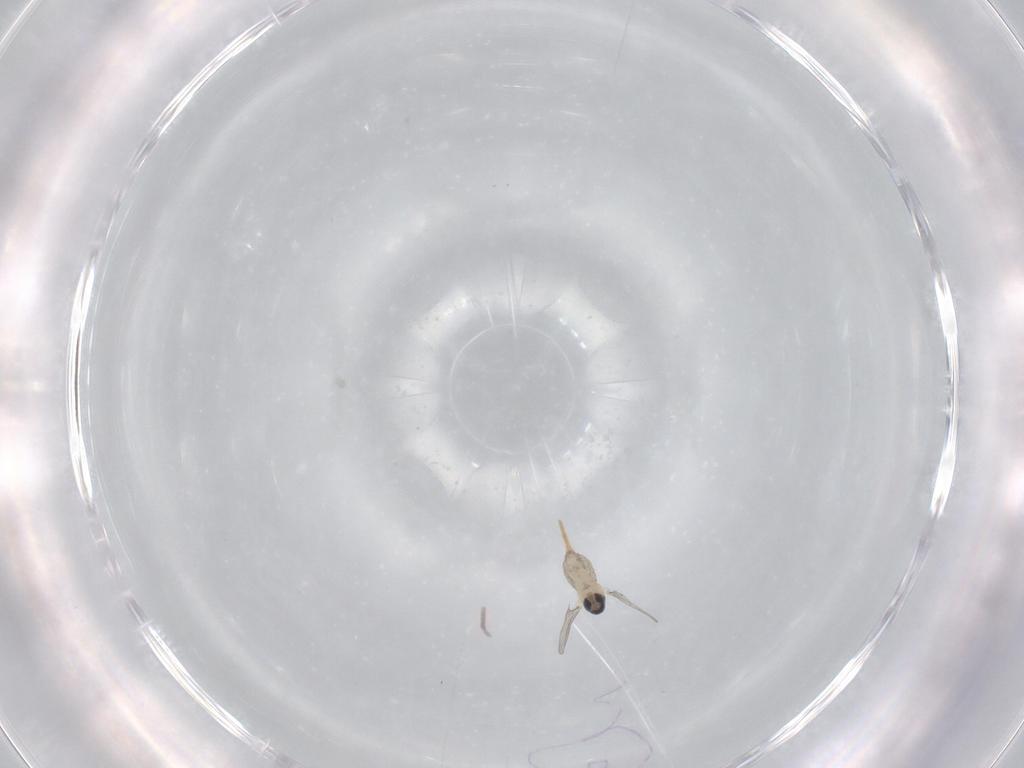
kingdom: Animalia
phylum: Arthropoda
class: Insecta
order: Diptera
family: Cecidomyiidae
